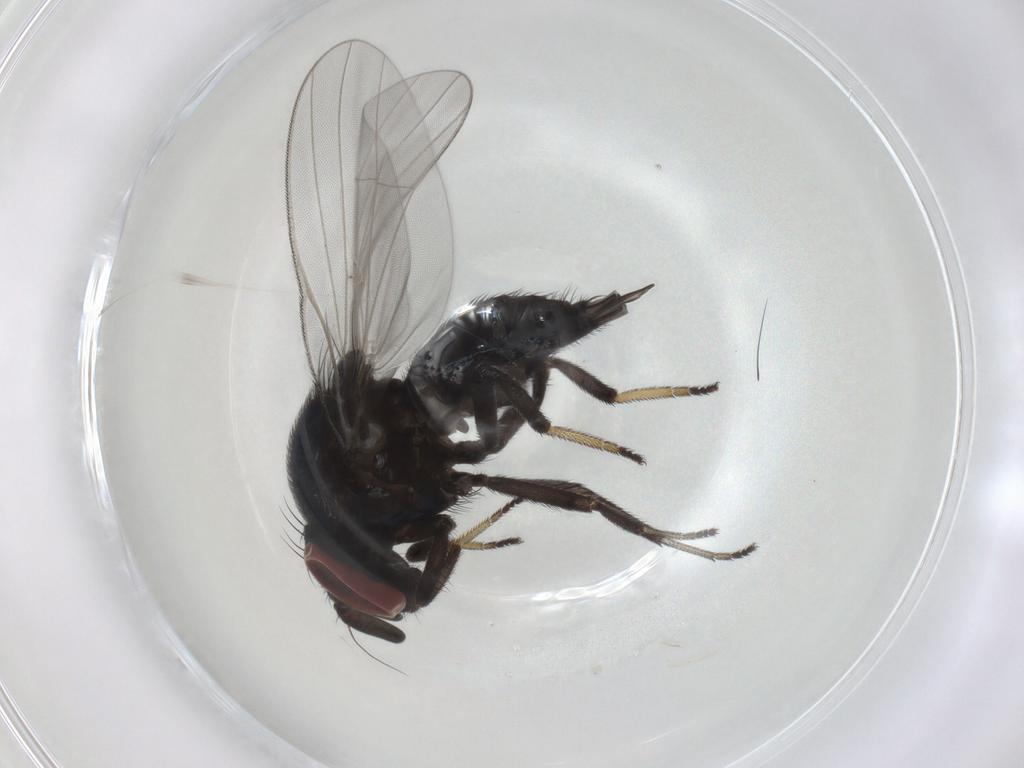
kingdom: Animalia
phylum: Arthropoda
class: Insecta
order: Diptera
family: Lonchaeidae
